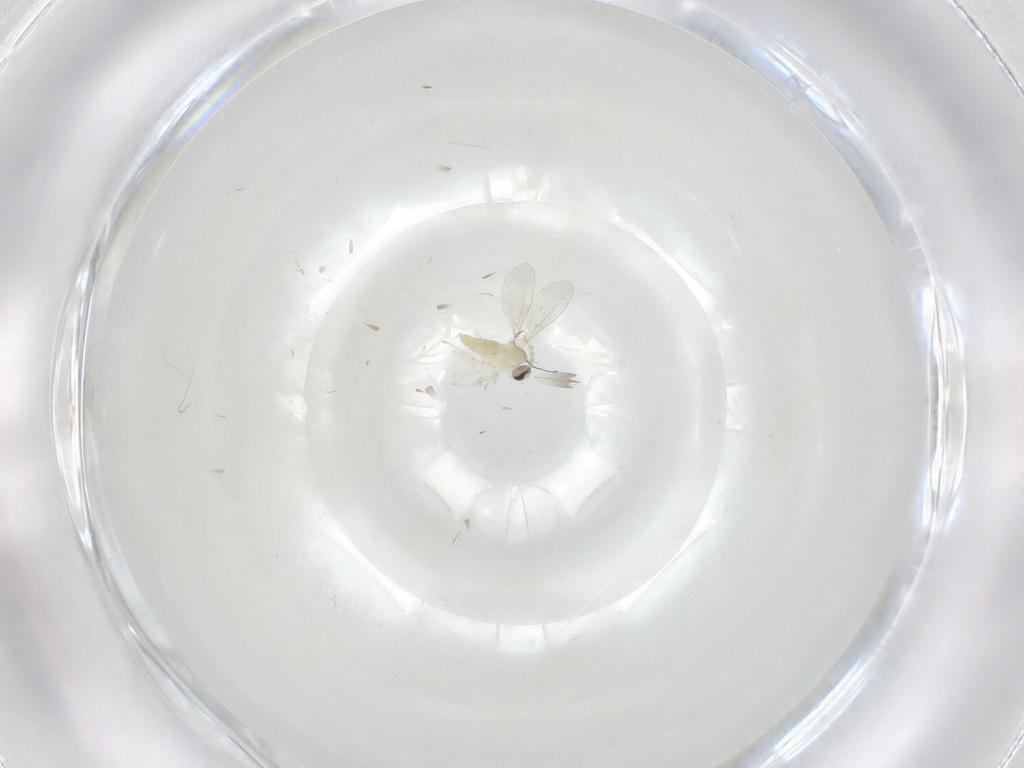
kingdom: Animalia
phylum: Arthropoda
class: Insecta
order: Diptera
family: Cecidomyiidae
